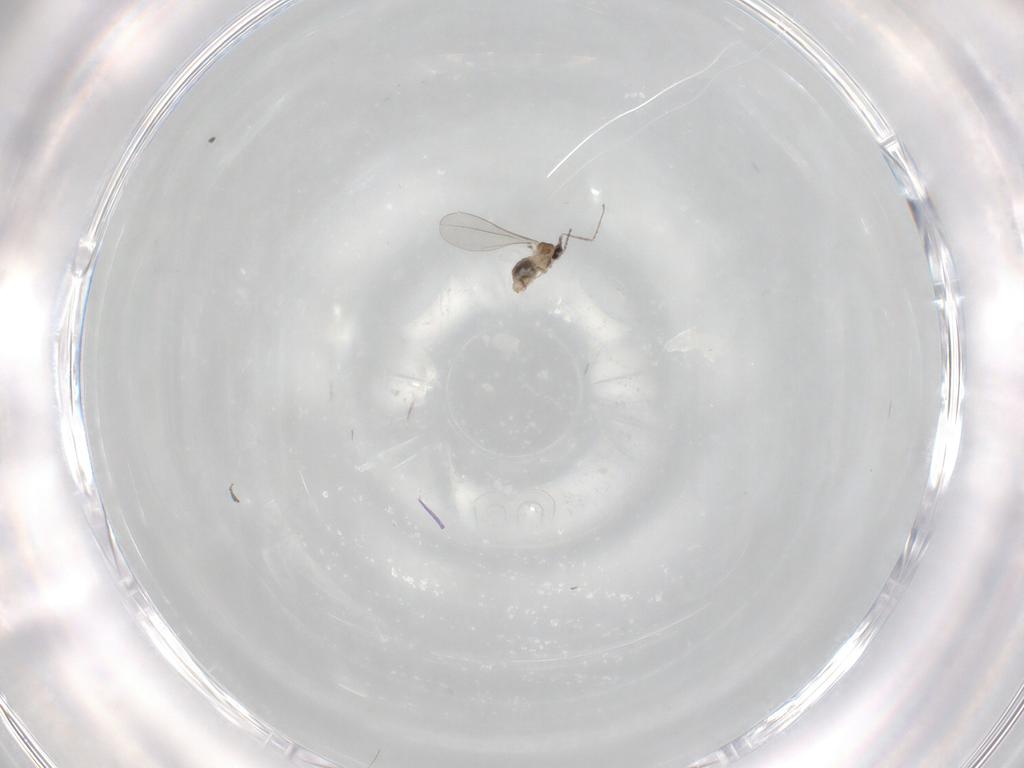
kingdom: Animalia
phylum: Arthropoda
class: Insecta
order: Diptera
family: Cecidomyiidae
